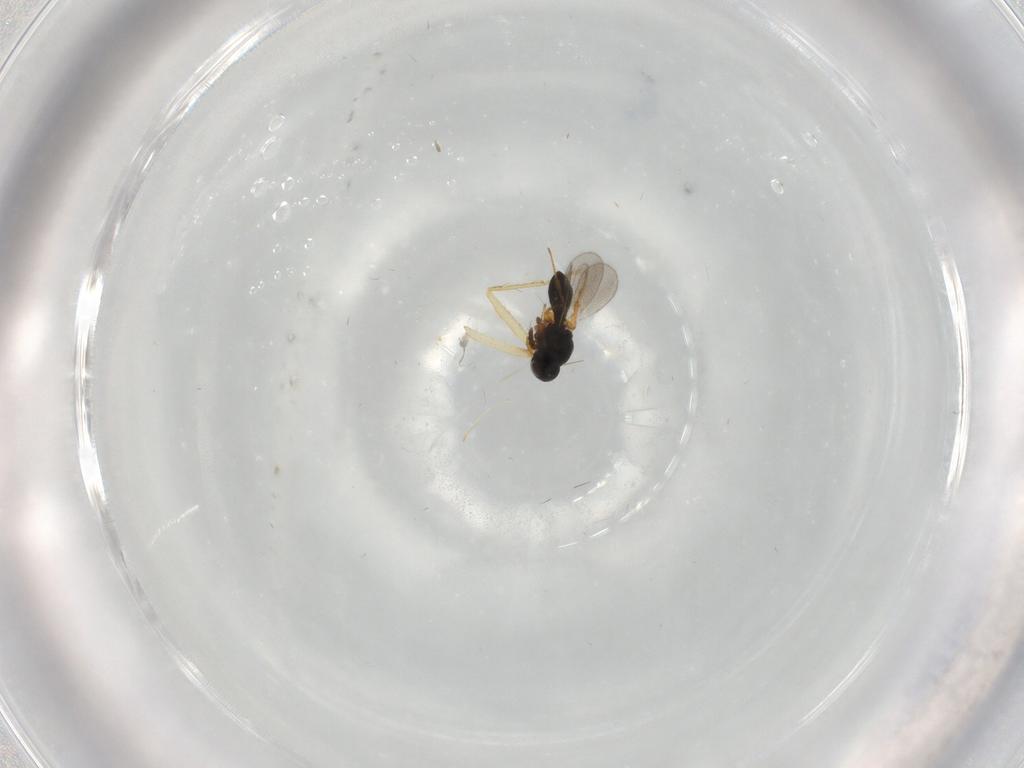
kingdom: Animalia
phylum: Arthropoda
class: Insecta
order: Hymenoptera
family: Platygastridae
